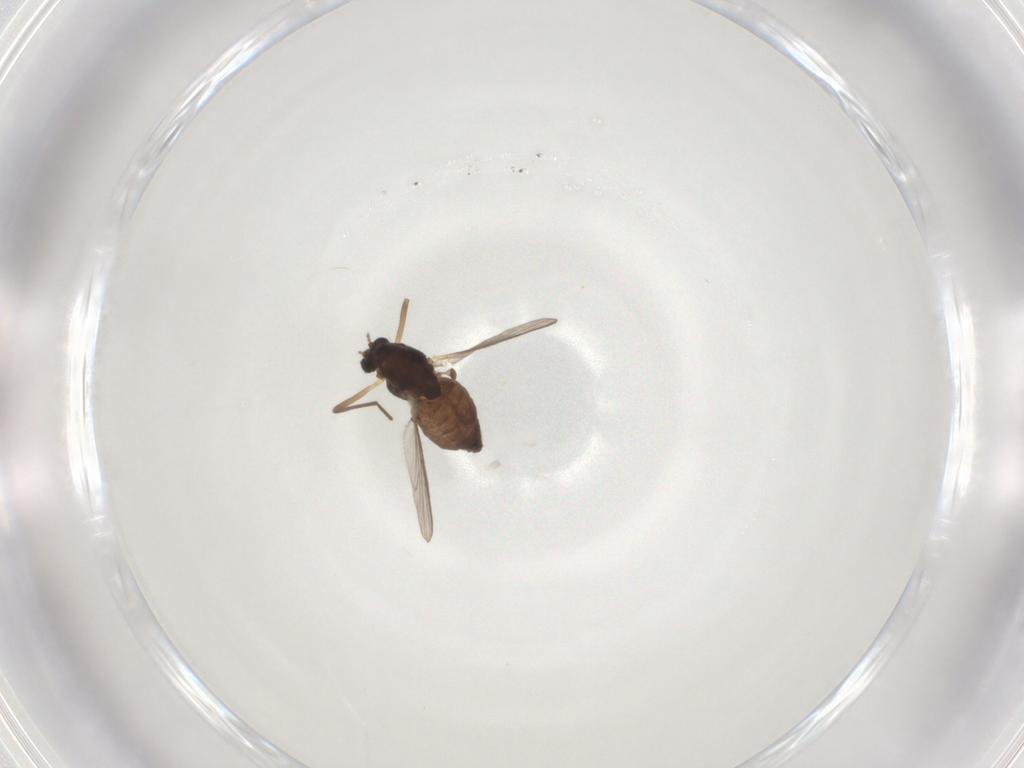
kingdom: Animalia
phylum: Arthropoda
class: Insecta
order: Diptera
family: Chironomidae
